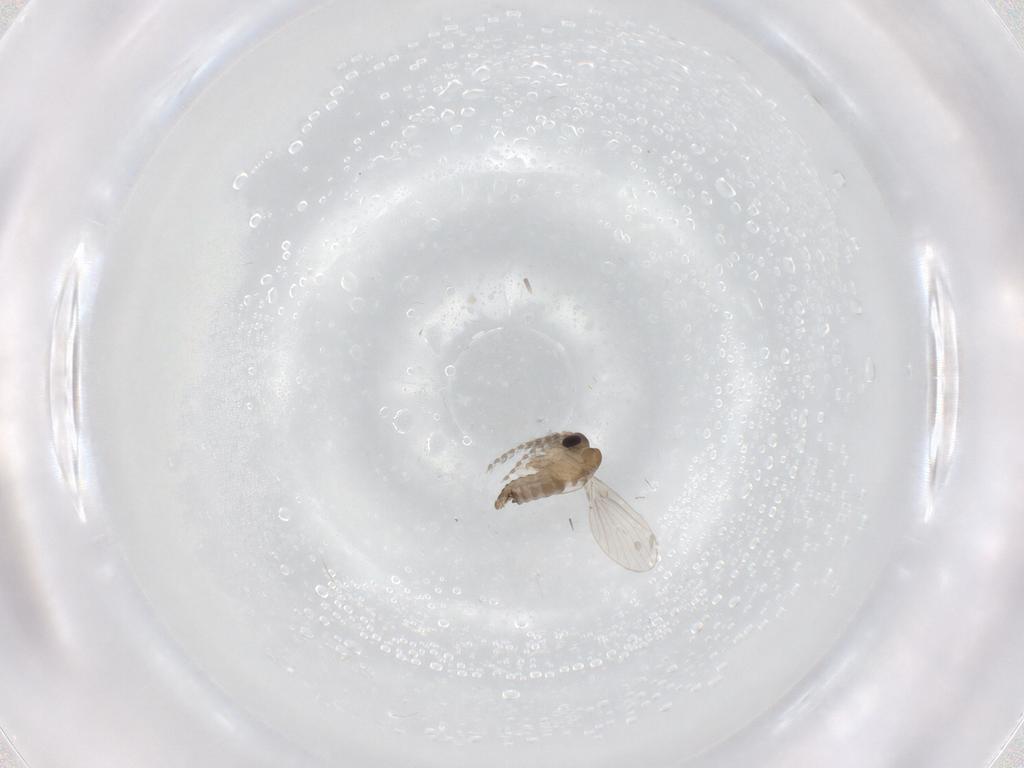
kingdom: Animalia
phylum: Arthropoda
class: Insecta
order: Diptera
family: Cecidomyiidae
